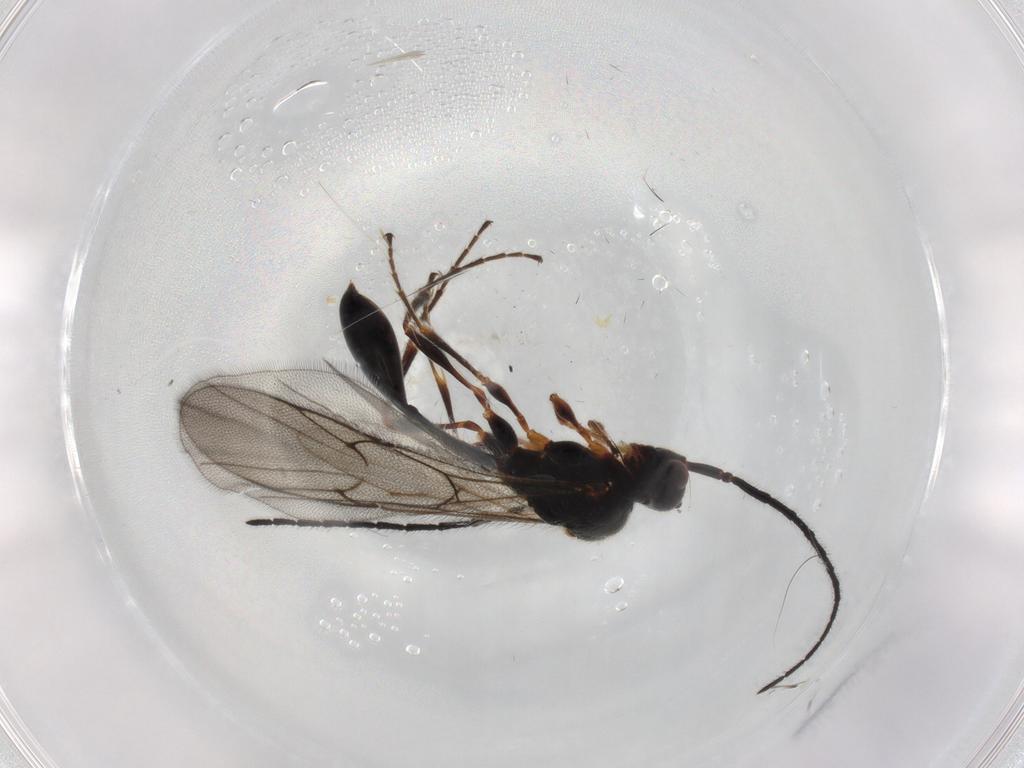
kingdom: Animalia
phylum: Arthropoda
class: Insecta
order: Hymenoptera
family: Diapriidae
